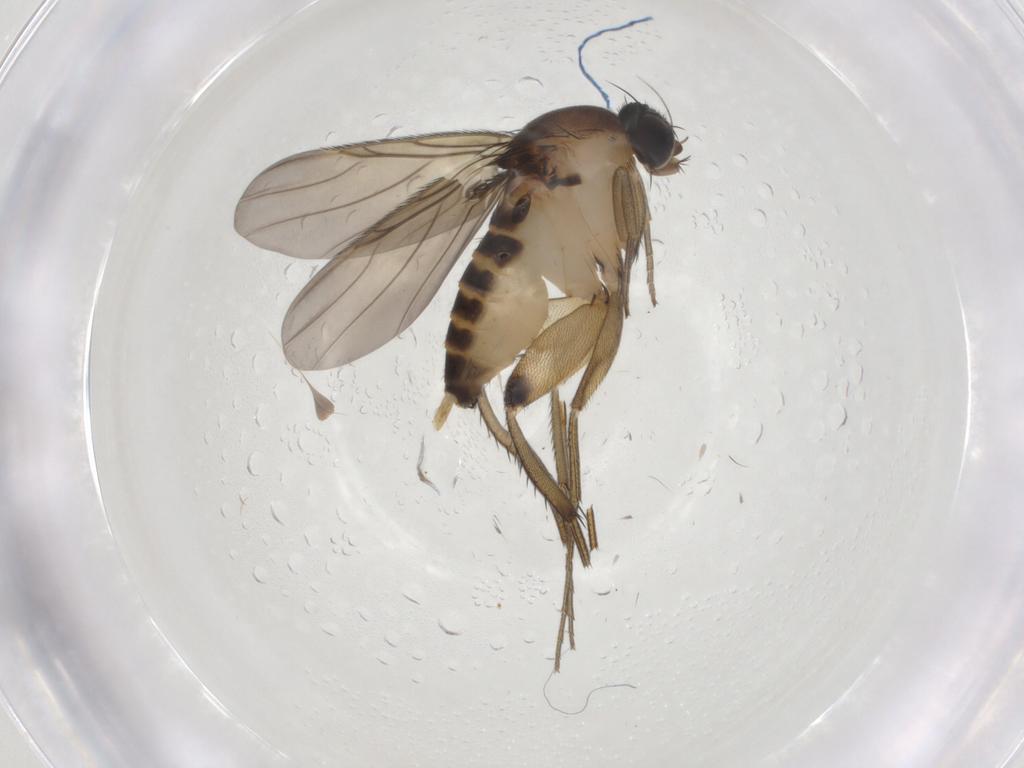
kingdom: Animalia
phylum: Arthropoda
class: Insecta
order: Diptera
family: Phoridae
